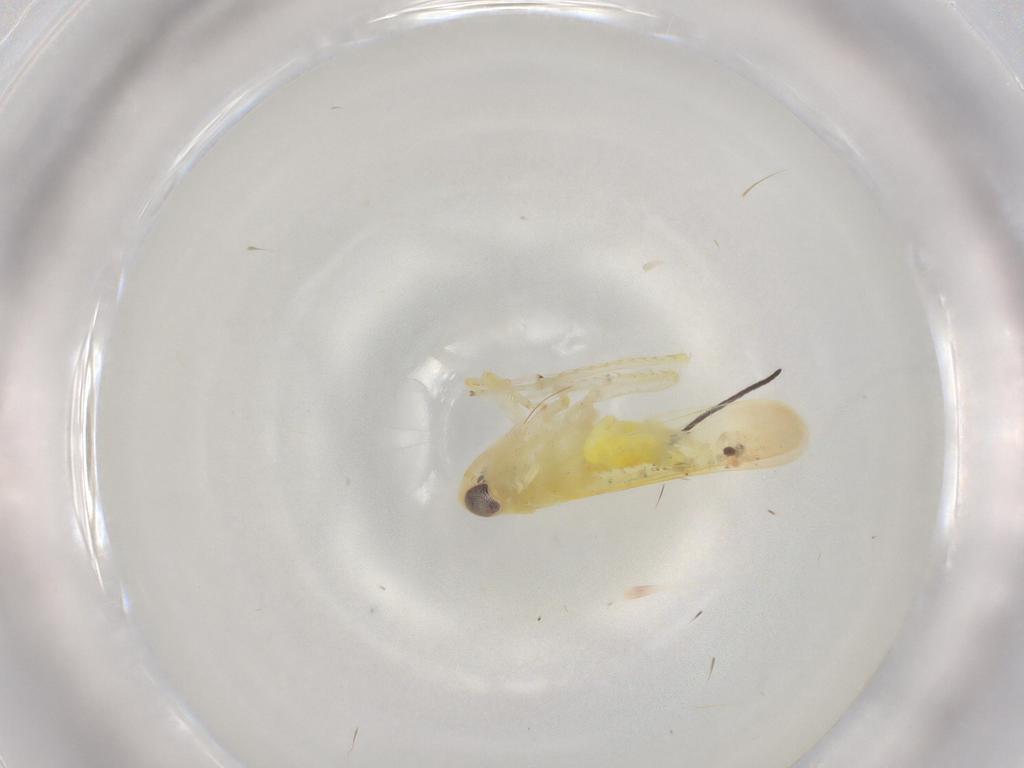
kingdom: Animalia
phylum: Arthropoda
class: Insecta
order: Hemiptera
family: Cicadellidae
